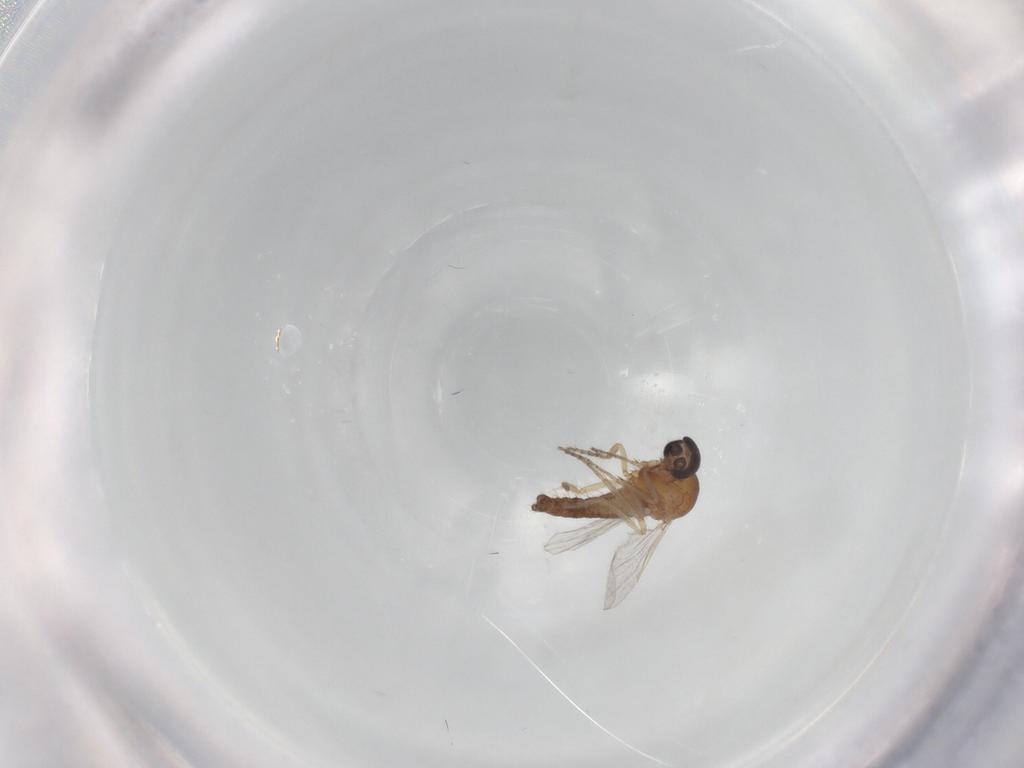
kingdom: Animalia
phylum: Arthropoda
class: Insecta
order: Diptera
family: Ceratopogonidae
